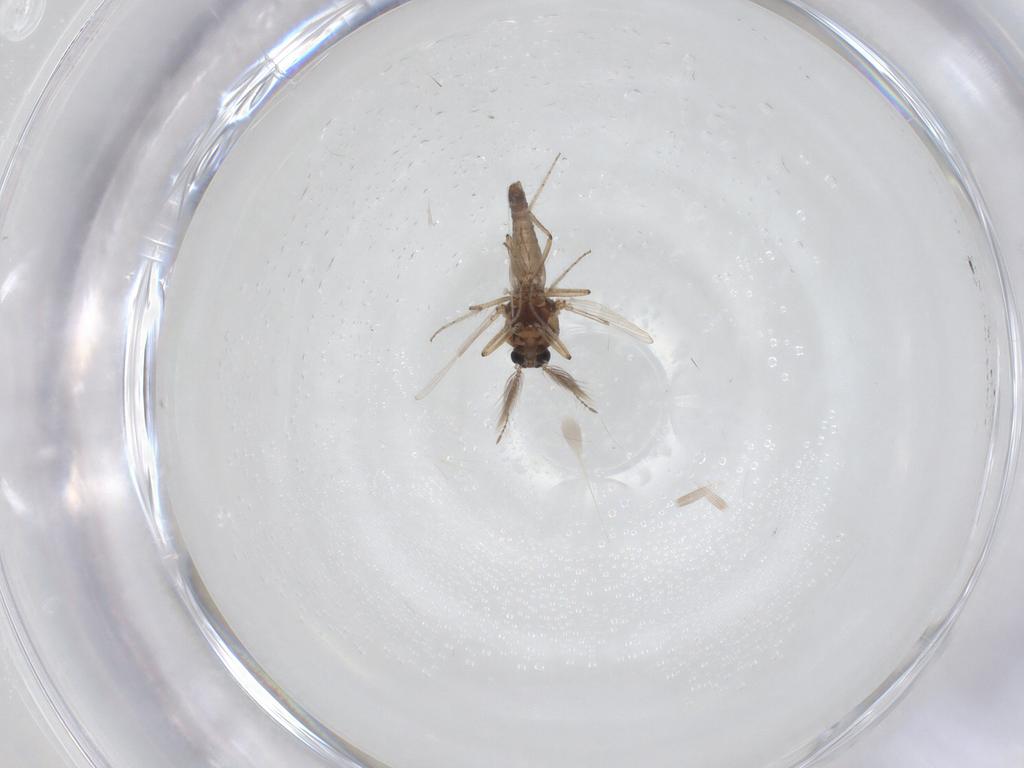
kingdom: Animalia
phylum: Arthropoda
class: Insecta
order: Diptera
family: Ceratopogonidae
